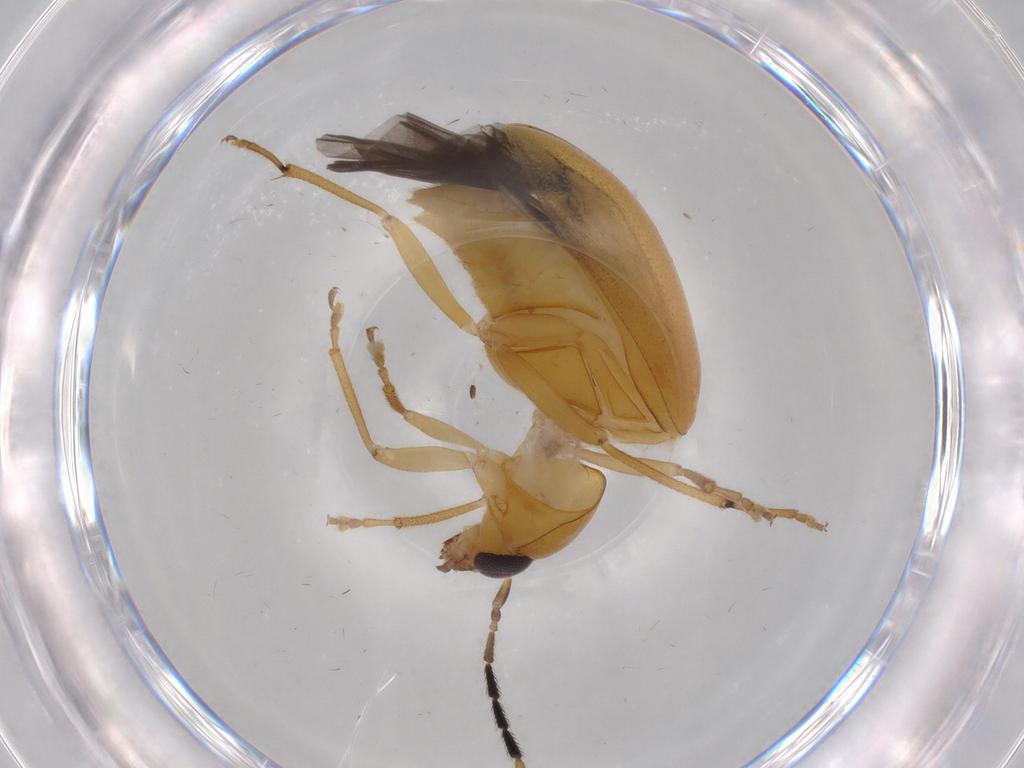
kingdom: Animalia
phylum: Arthropoda
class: Insecta
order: Coleoptera
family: Chrysomelidae
